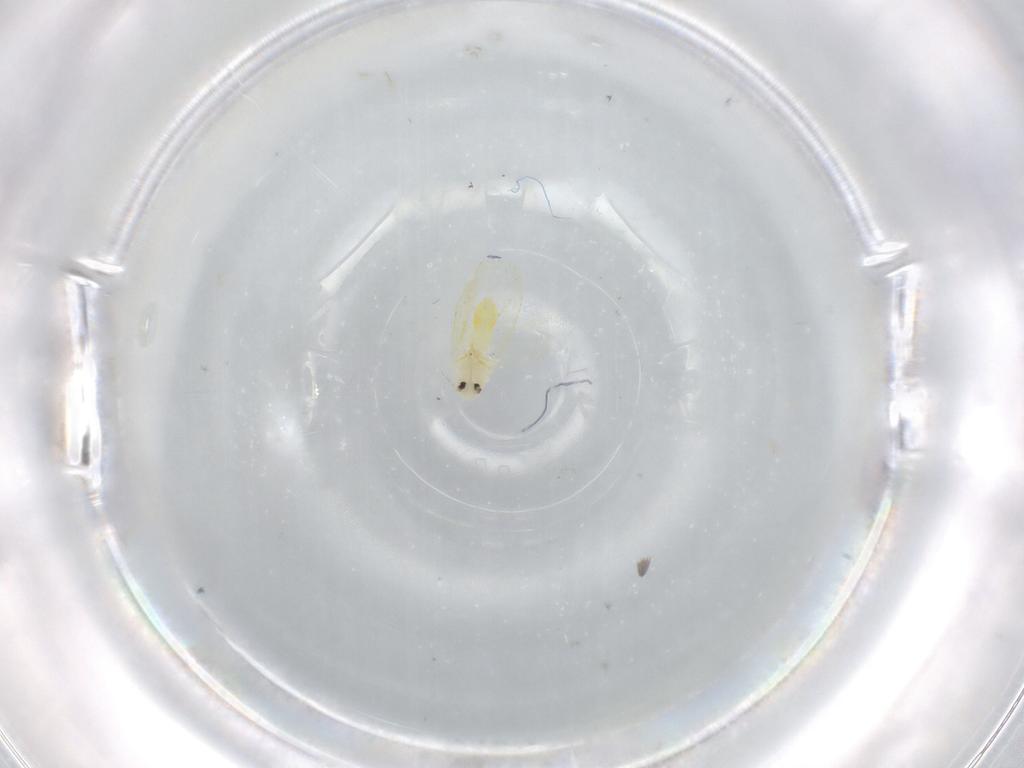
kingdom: Animalia
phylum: Arthropoda
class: Insecta
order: Hemiptera
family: Aleyrodidae
